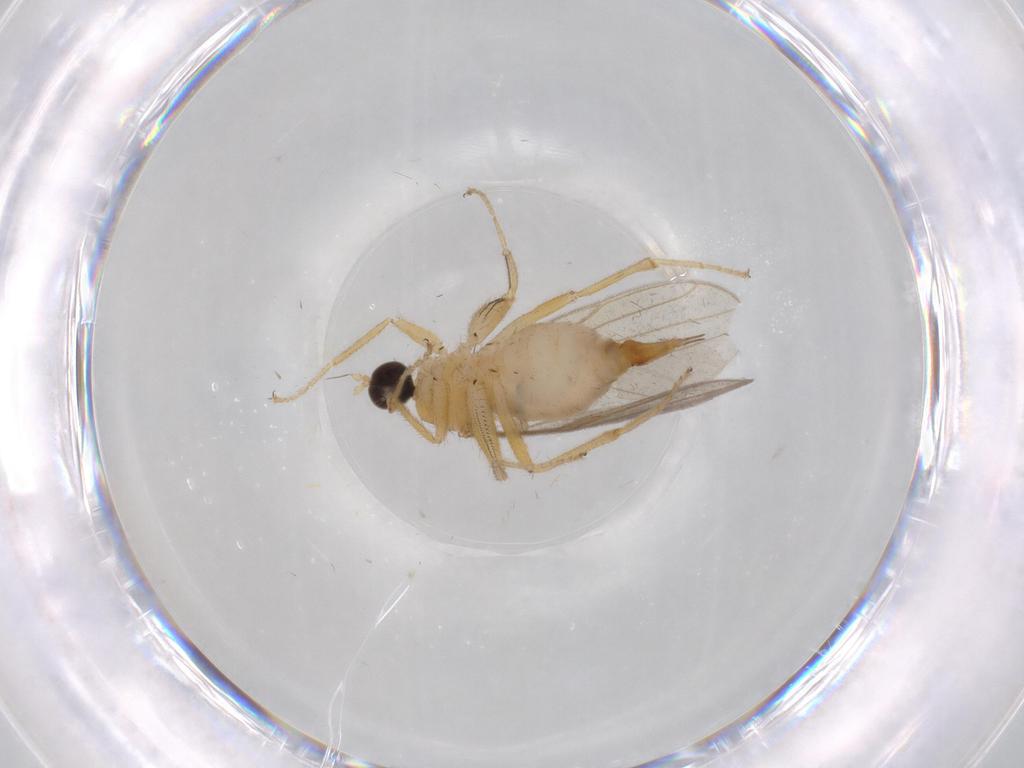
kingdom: Animalia
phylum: Arthropoda
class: Insecta
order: Diptera
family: Hybotidae
